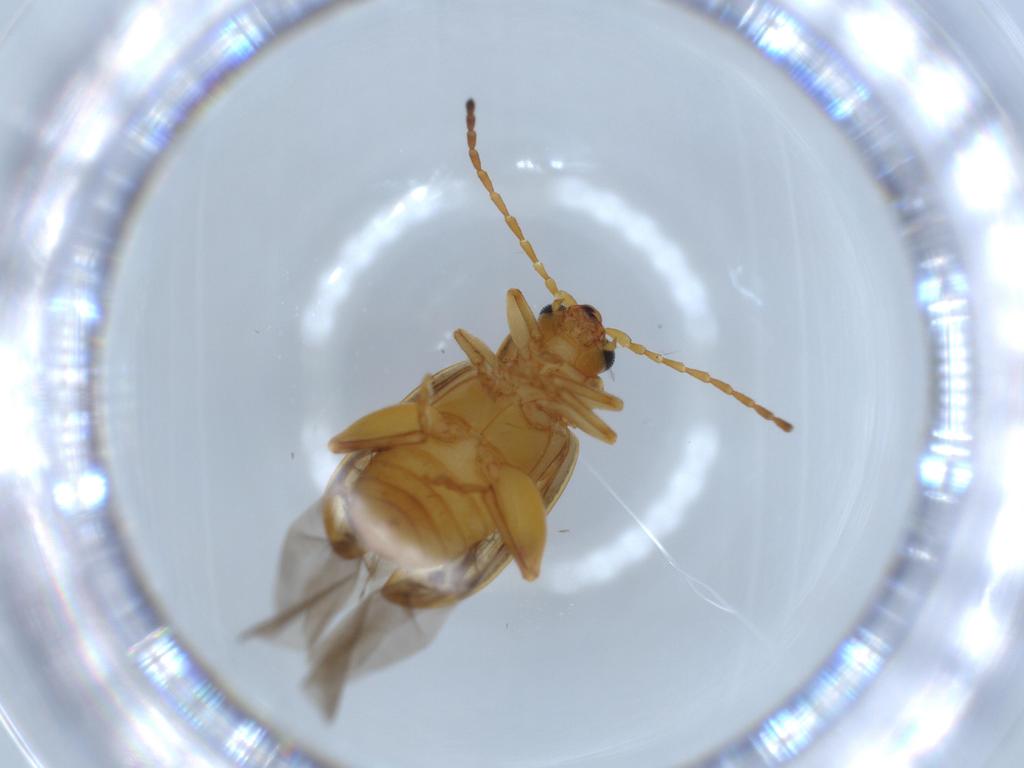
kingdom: Animalia
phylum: Arthropoda
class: Insecta
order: Coleoptera
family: Chrysomelidae
